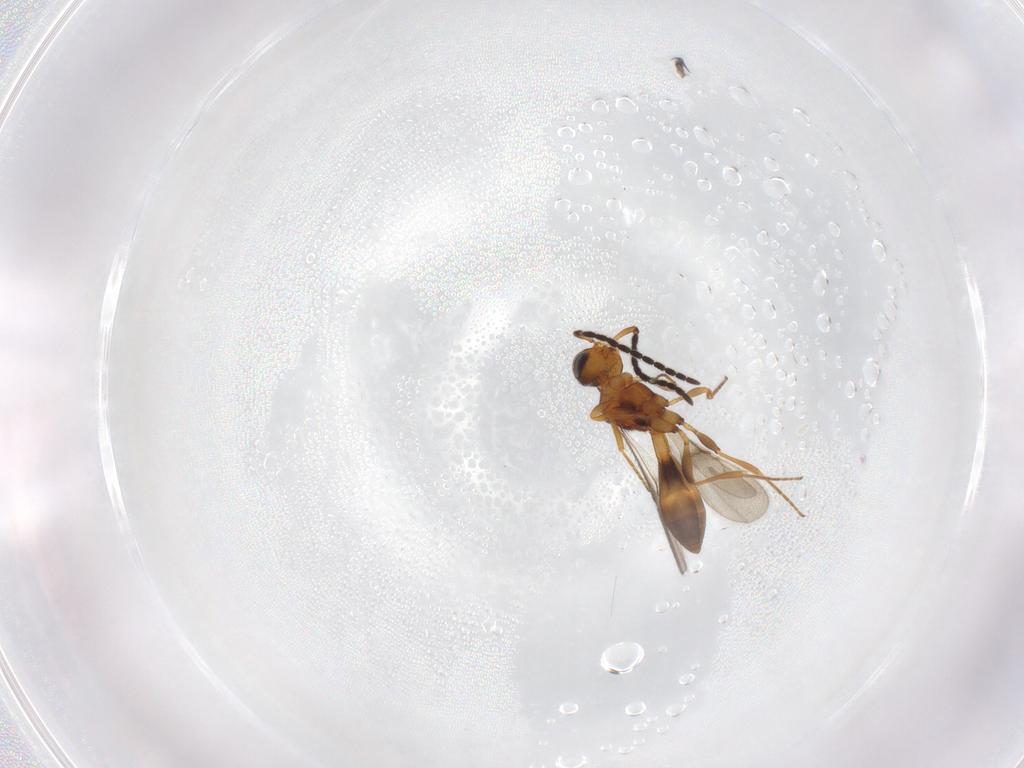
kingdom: Animalia
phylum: Arthropoda
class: Insecta
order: Hymenoptera
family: Scelionidae
